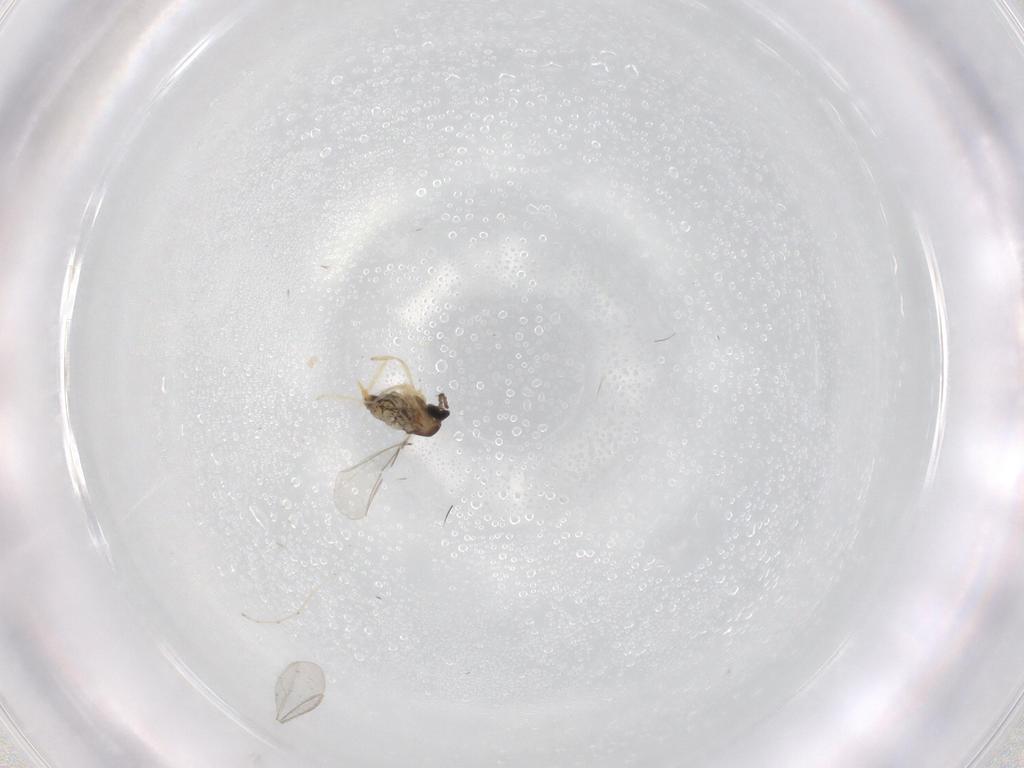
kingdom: Animalia
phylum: Arthropoda
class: Insecta
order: Diptera
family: Cecidomyiidae
